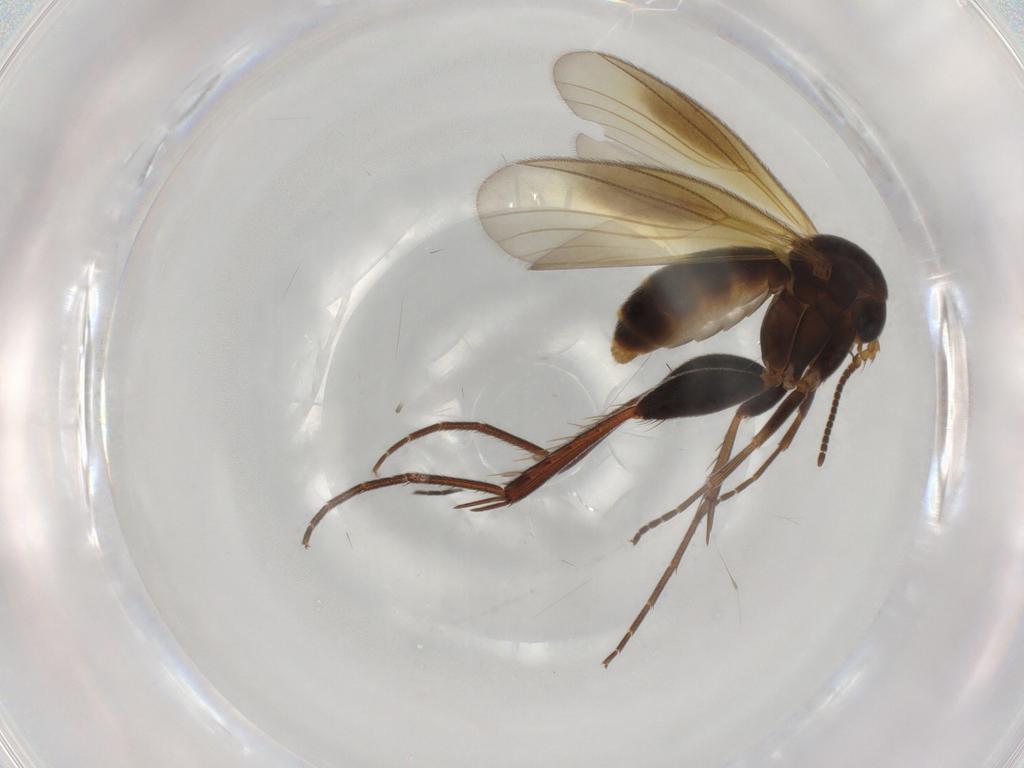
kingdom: Animalia
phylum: Arthropoda
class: Insecta
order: Diptera
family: Sciaridae
